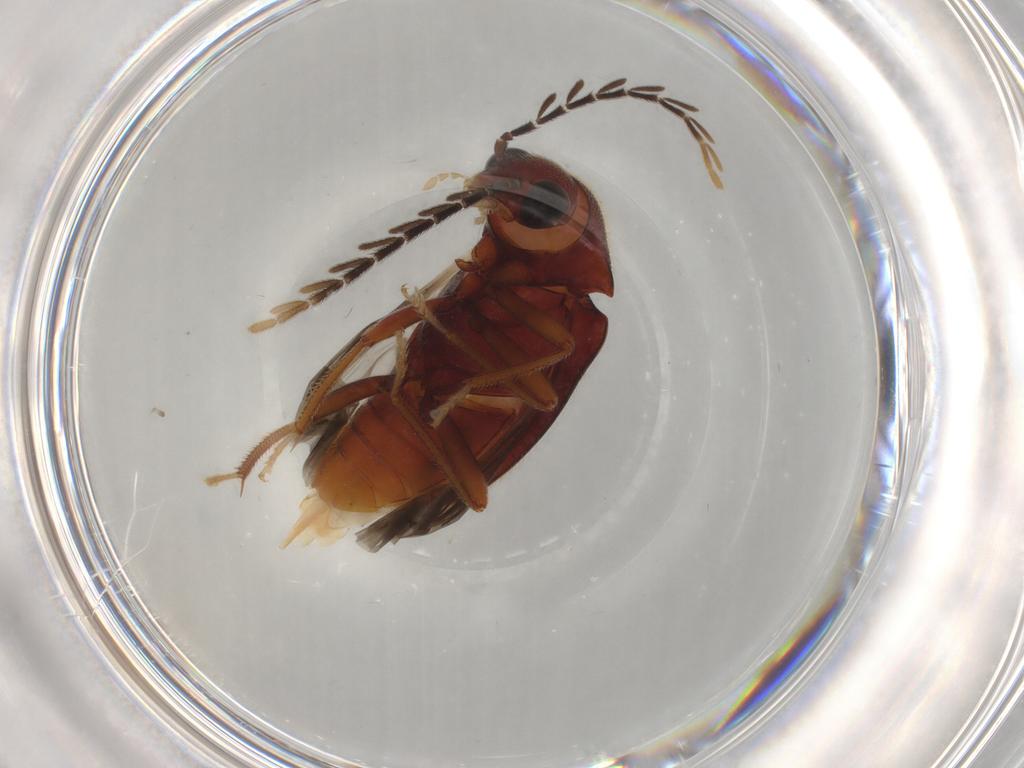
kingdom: Animalia
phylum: Arthropoda
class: Insecta
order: Coleoptera
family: Ptilodactylidae
